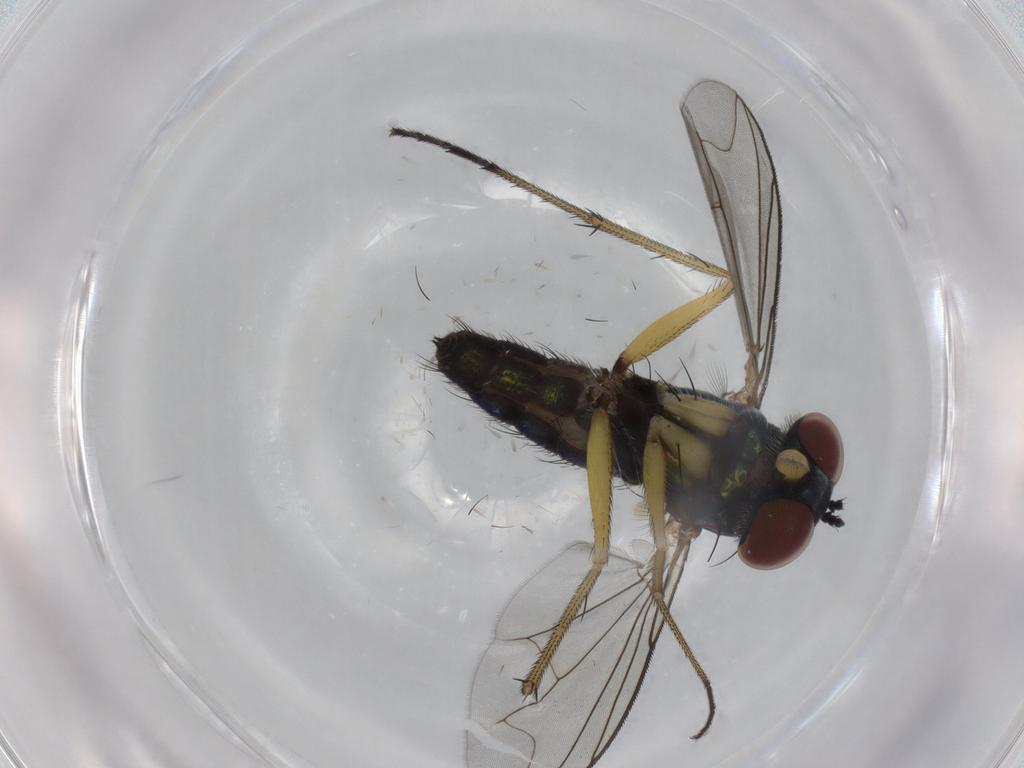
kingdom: Animalia
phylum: Arthropoda
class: Insecta
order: Diptera
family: Dolichopodidae
